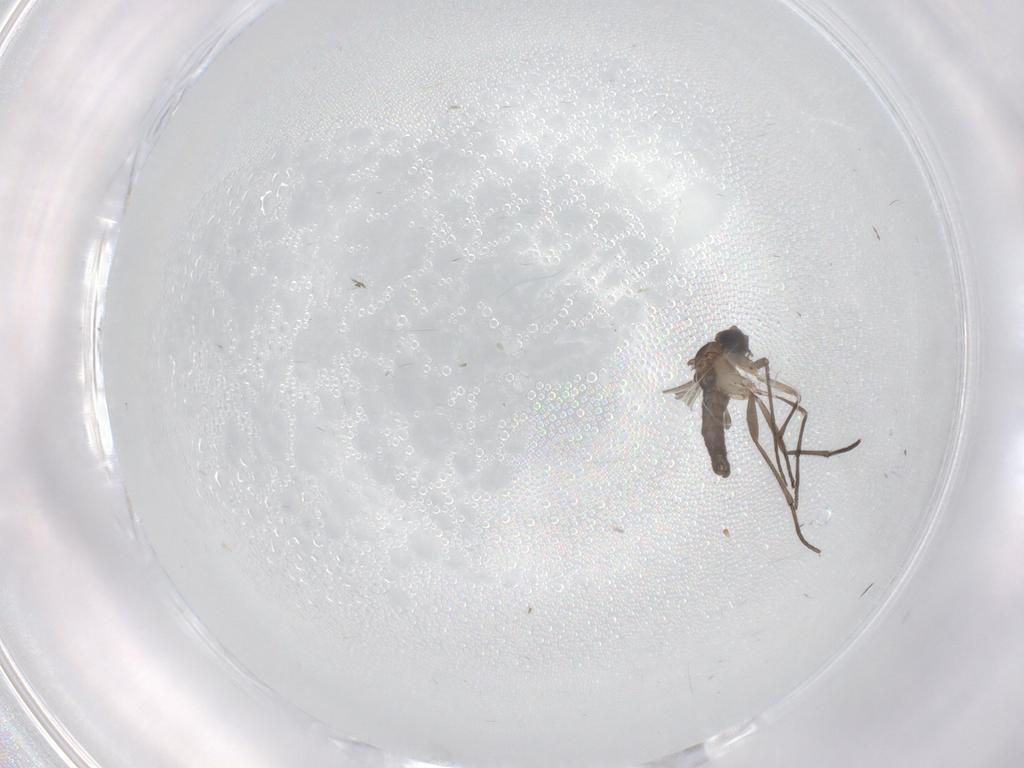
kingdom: Animalia
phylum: Arthropoda
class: Insecta
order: Diptera
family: Sciaridae
